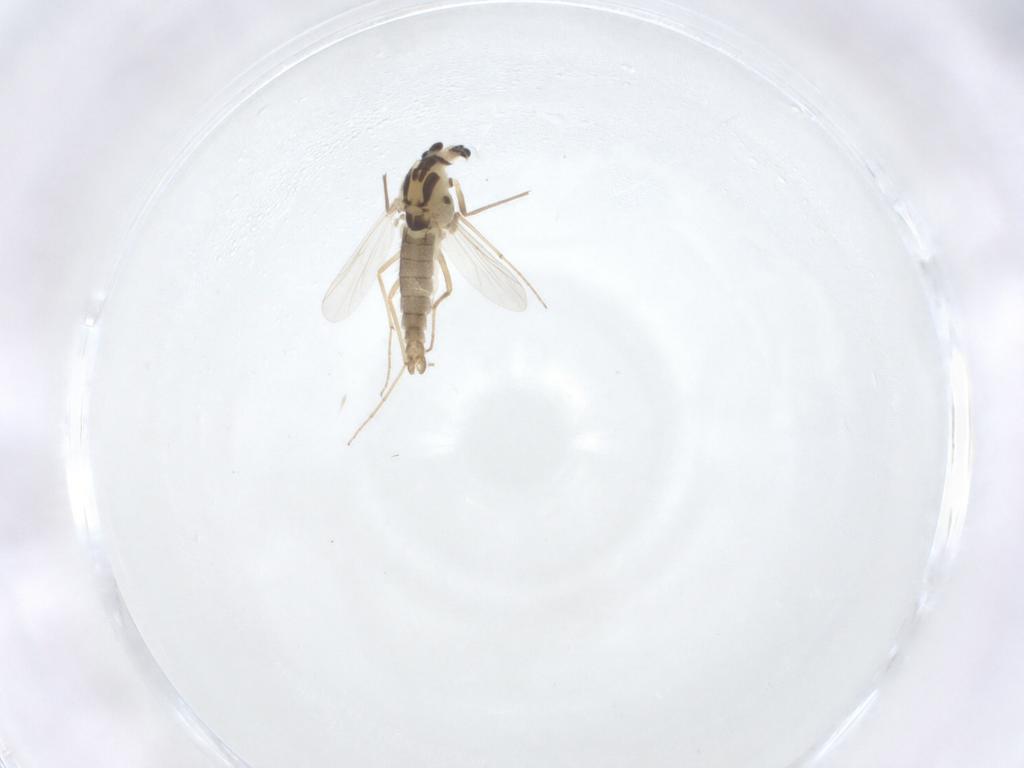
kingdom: Animalia
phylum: Arthropoda
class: Insecta
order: Diptera
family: Chironomidae
